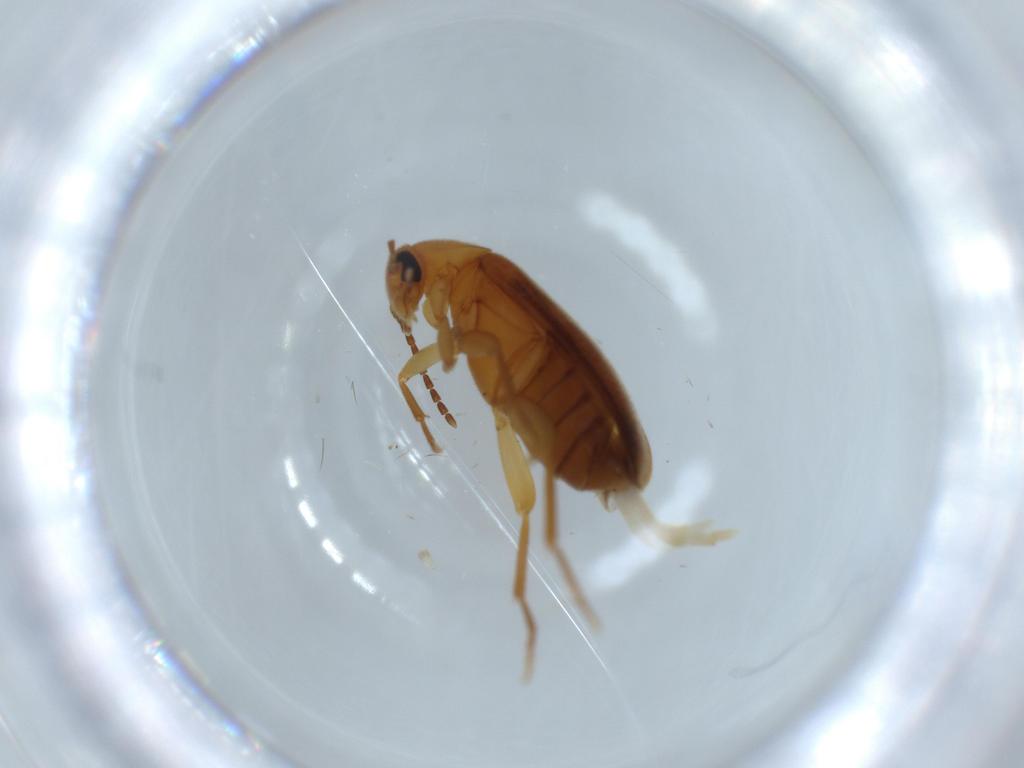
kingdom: Animalia
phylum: Arthropoda
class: Insecta
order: Coleoptera
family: Scraptiidae
